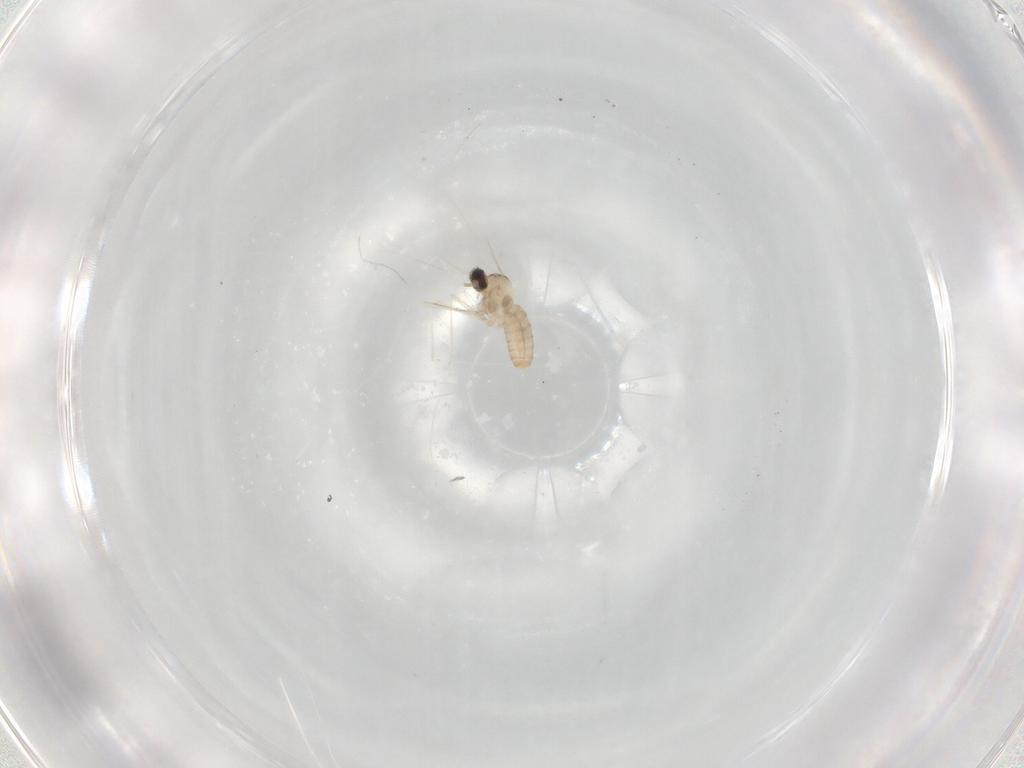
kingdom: Animalia
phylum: Arthropoda
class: Insecta
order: Diptera
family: Cecidomyiidae
